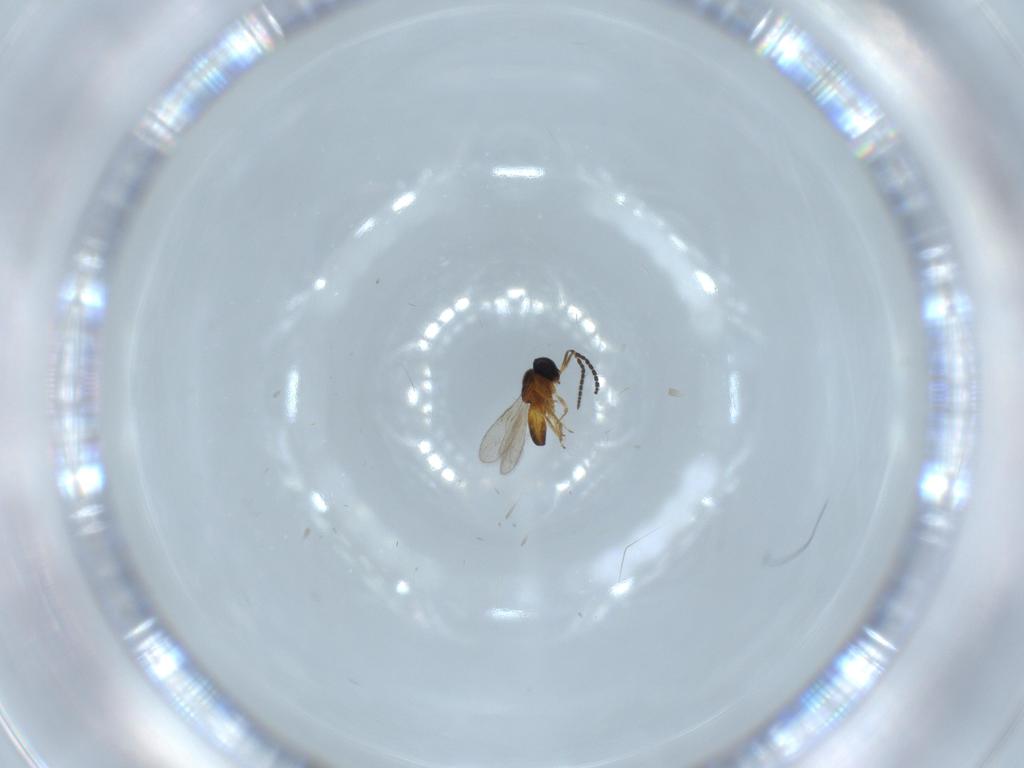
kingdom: Animalia
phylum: Arthropoda
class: Insecta
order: Hymenoptera
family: Scelionidae
